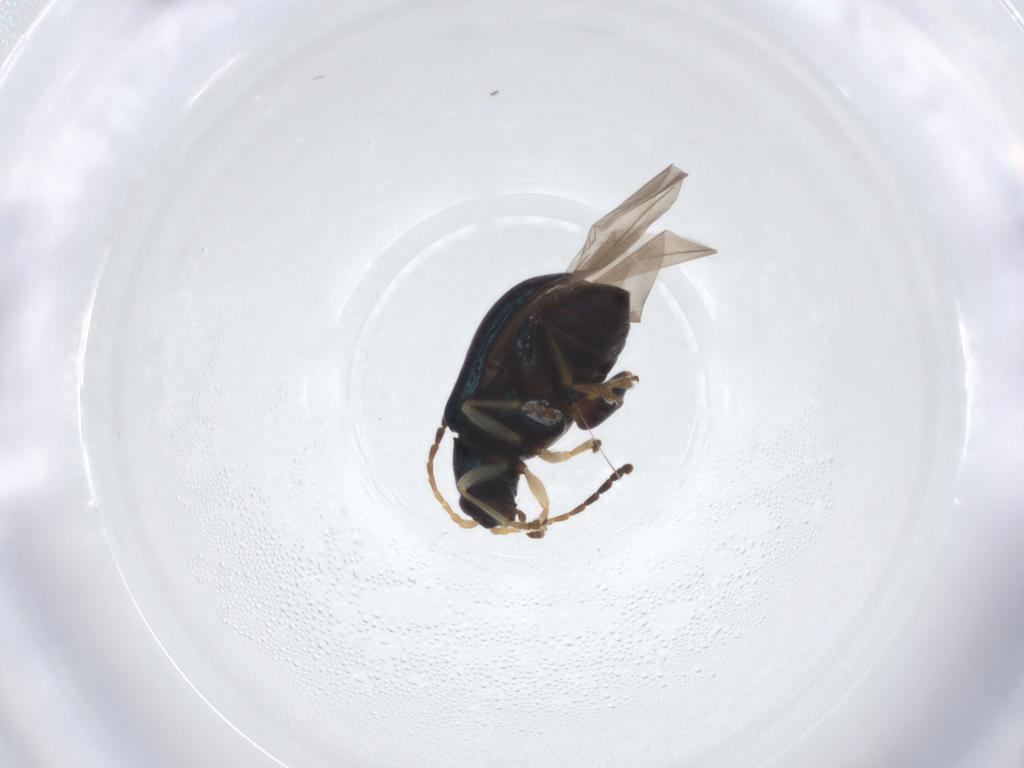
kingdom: Animalia
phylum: Arthropoda
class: Insecta
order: Coleoptera
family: Chrysomelidae
